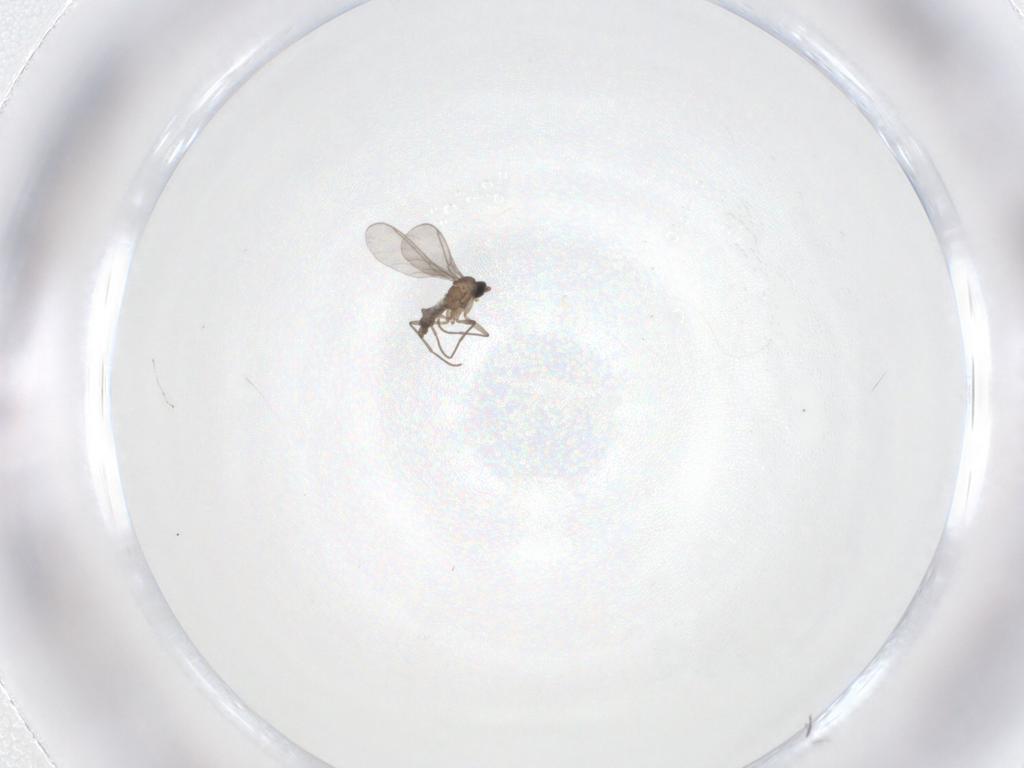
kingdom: Animalia
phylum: Arthropoda
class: Insecta
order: Diptera
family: Sciaridae
